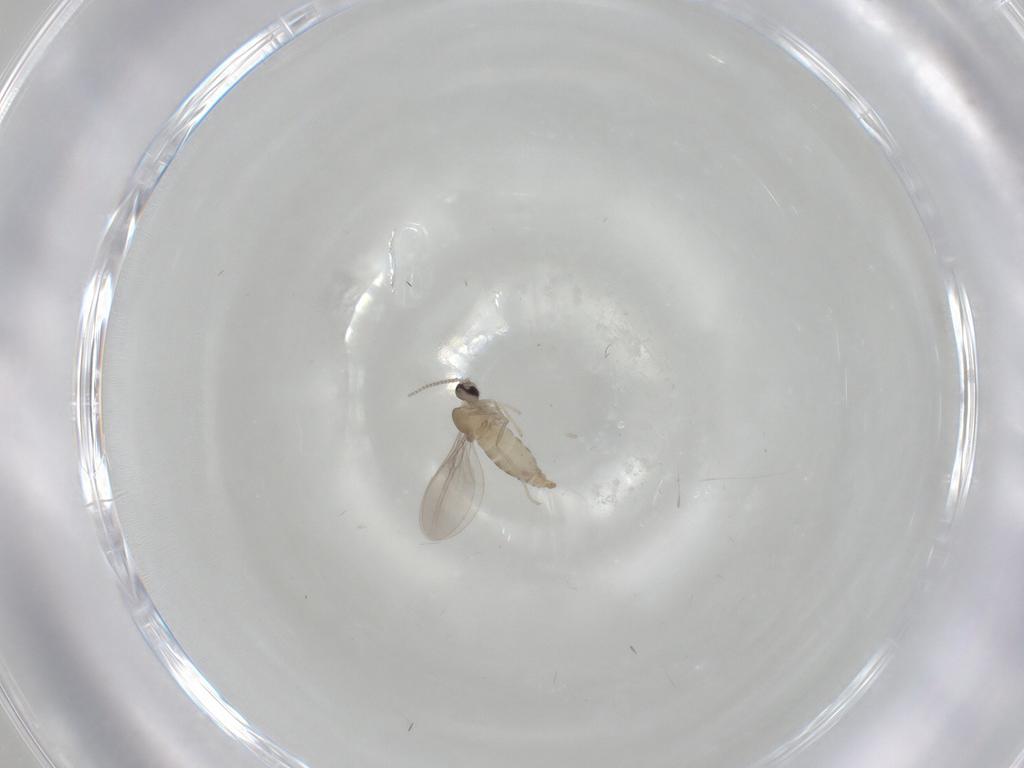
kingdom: Animalia
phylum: Arthropoda
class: Insecta
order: Diptera
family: Cecidomyiidae
